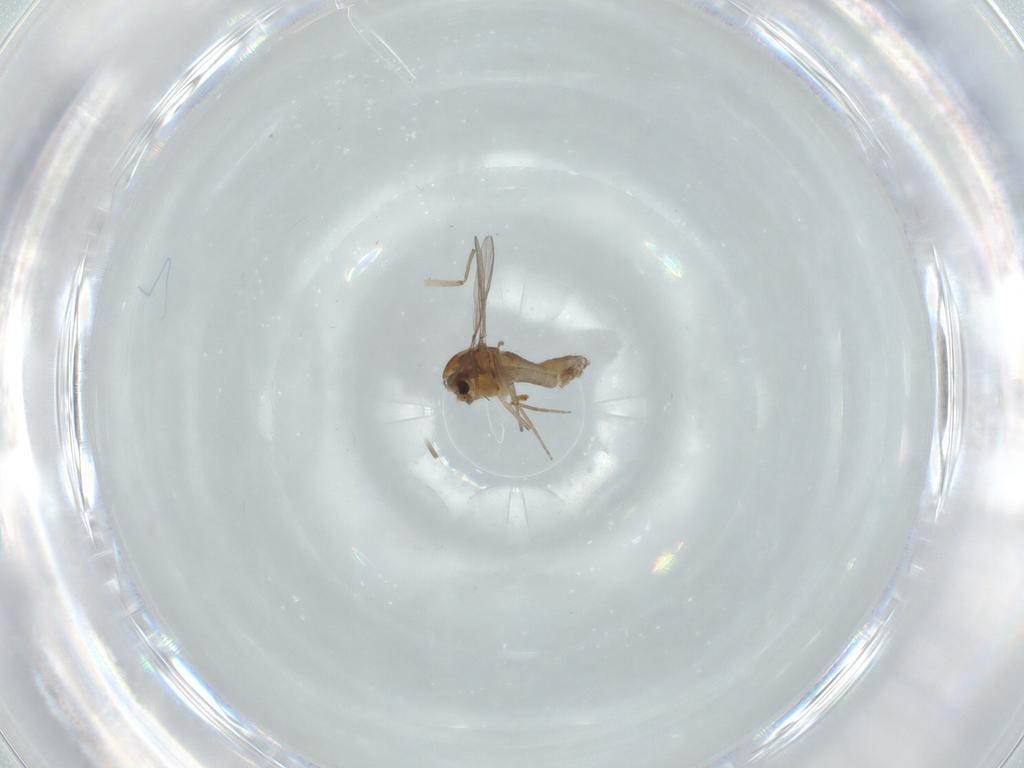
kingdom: Animalia
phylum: Arthropoda
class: Insecta
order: Diptera
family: Chironomidae
